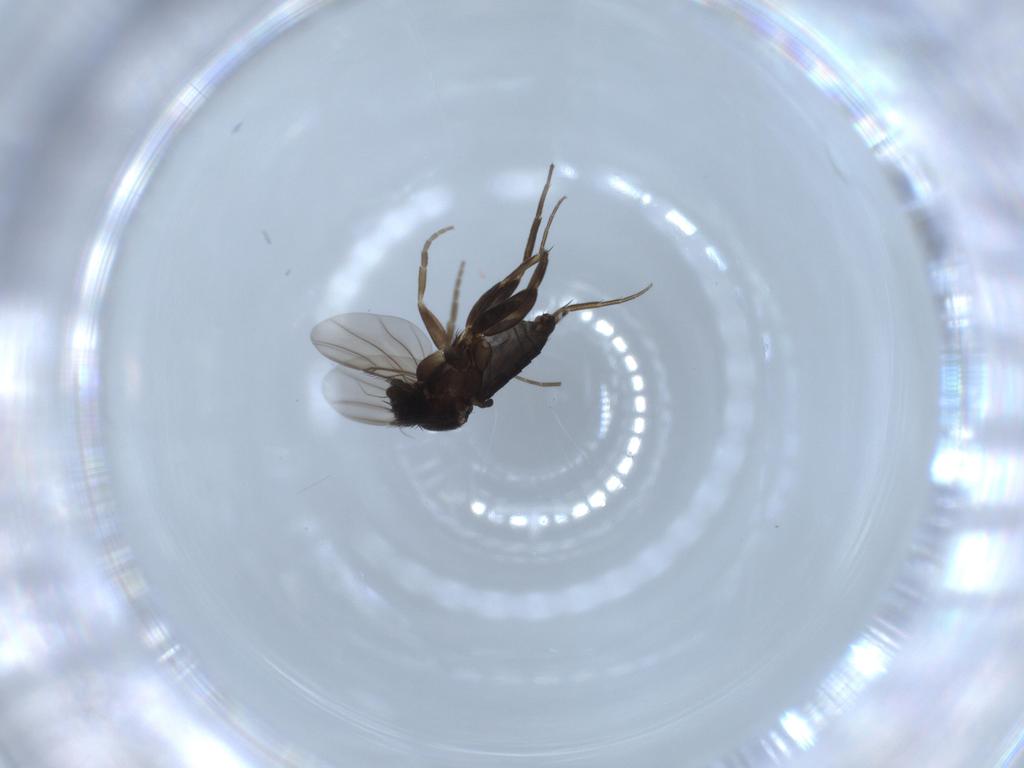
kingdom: Animalia
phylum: Arthropoda
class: Insecta
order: Diptera
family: Phoridae
